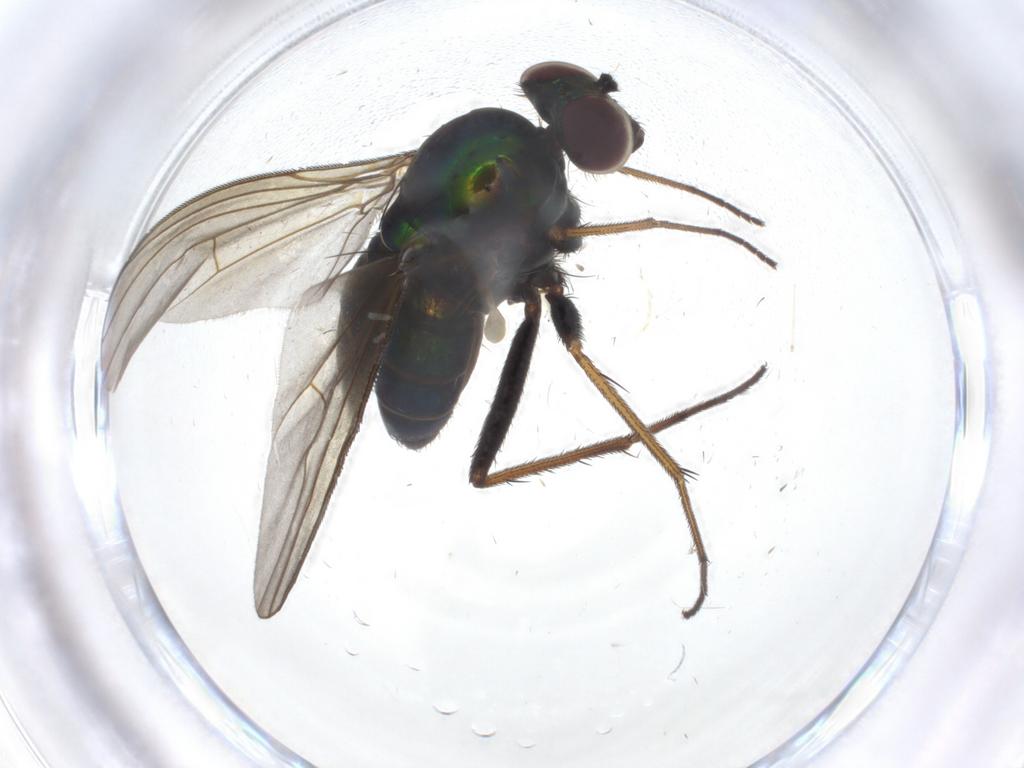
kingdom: Animalia
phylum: Arthropoda
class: Insecta
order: Diptera
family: Dolichopodidae
